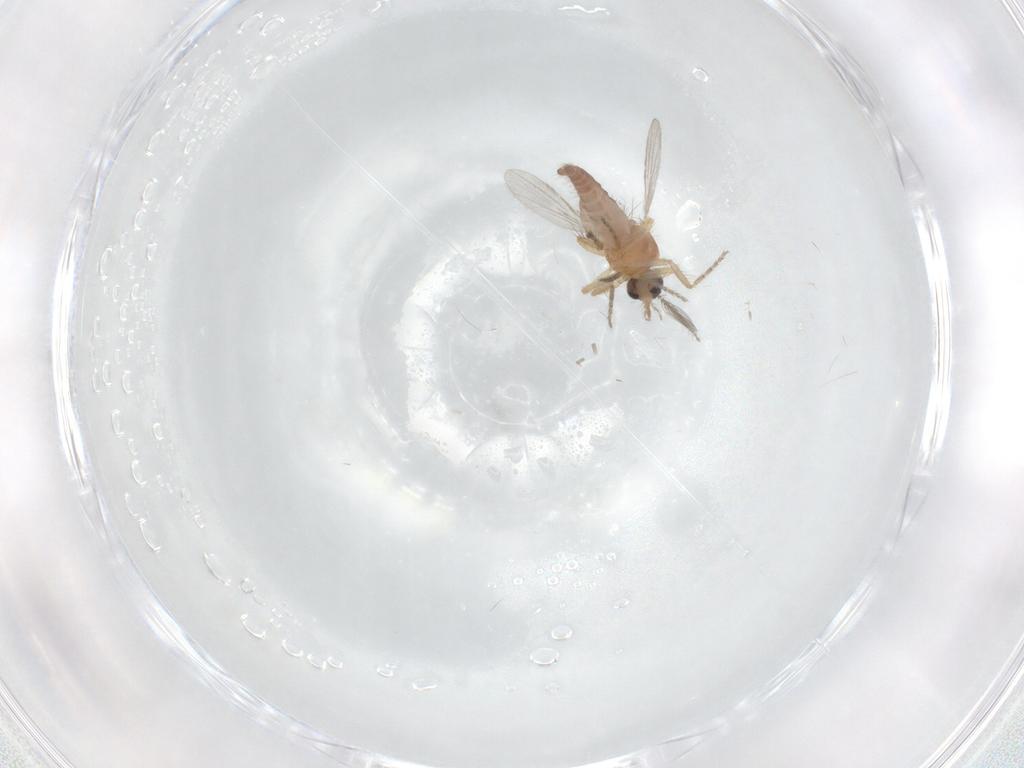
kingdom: Animalia
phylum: Arthropoda
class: Insecta
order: Diptera
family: Ceratopogonidae
